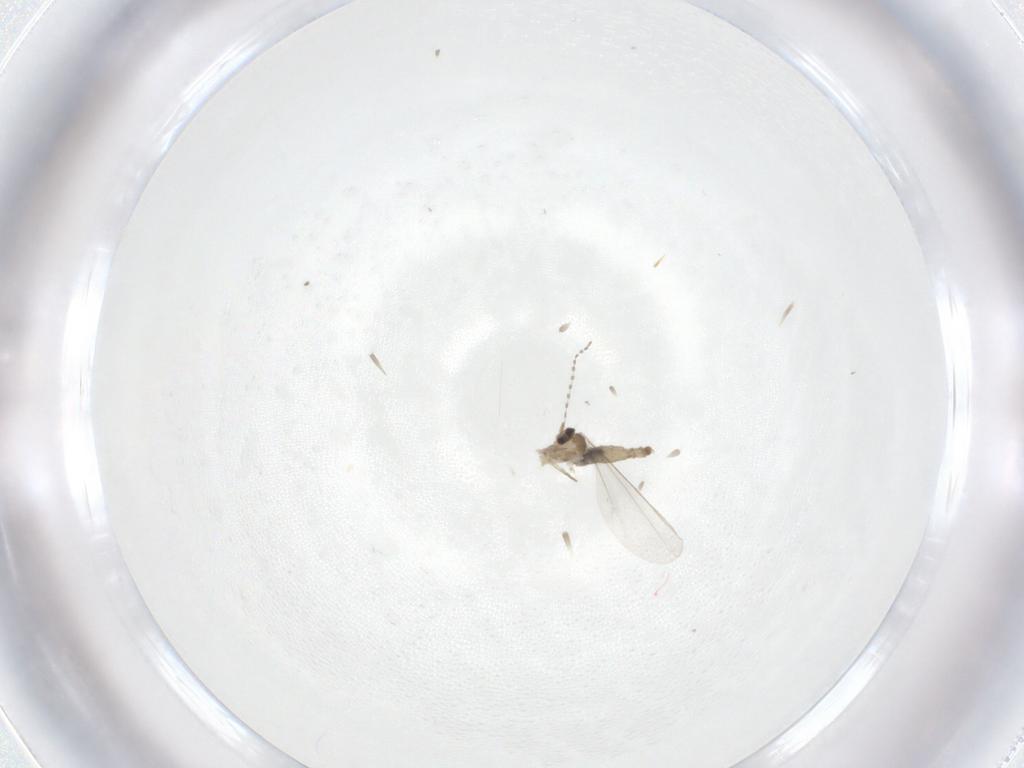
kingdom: Animalia
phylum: Arthropoda
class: Insecta
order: Diptera
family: Cecidomyiidae
